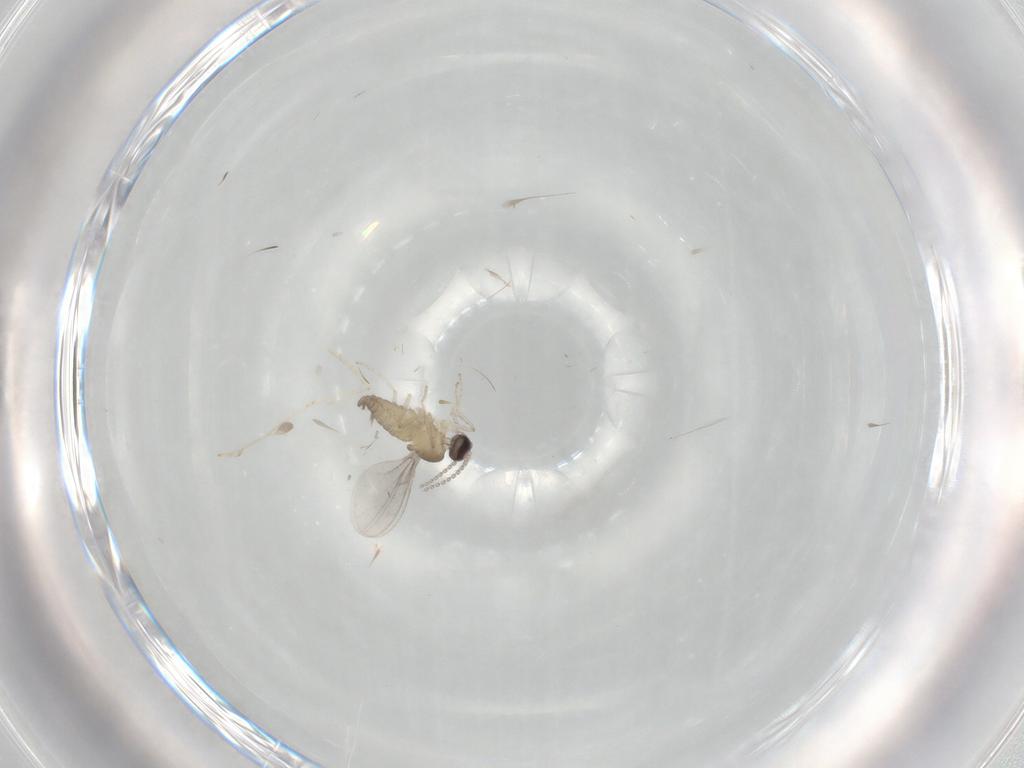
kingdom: Animalia
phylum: Arthropoda
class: Insecta
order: Diptera
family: Cecidomyiidae
